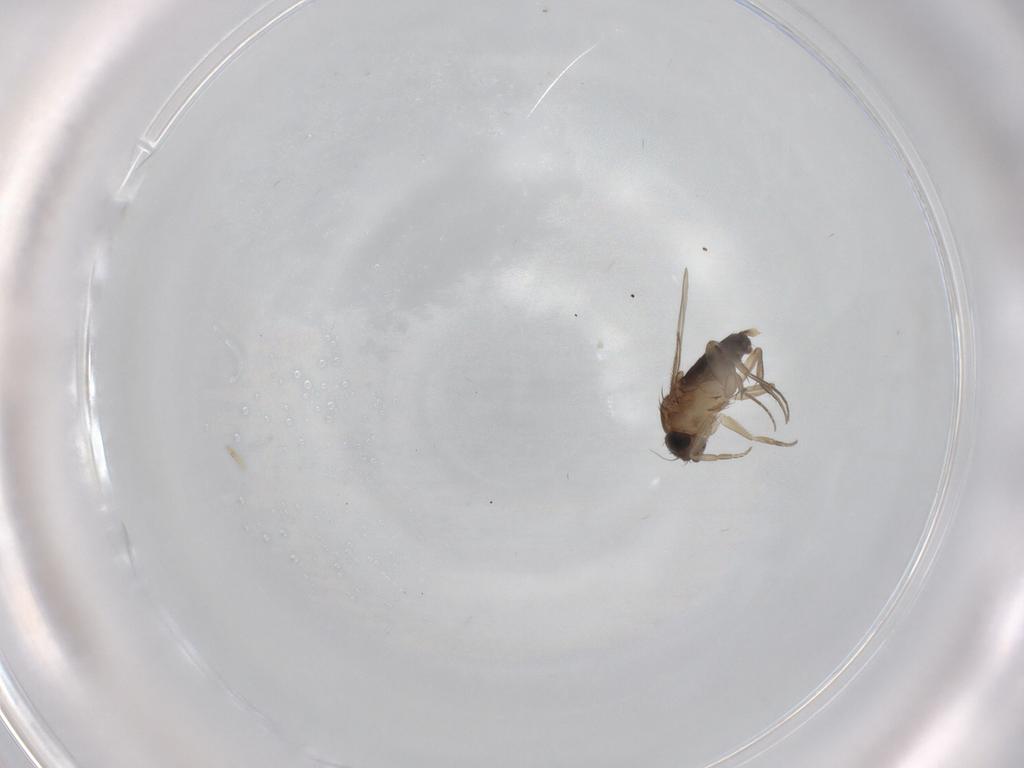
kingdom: Animalia
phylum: Arthropoda
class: Insecta
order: Diptera
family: Phoridae
